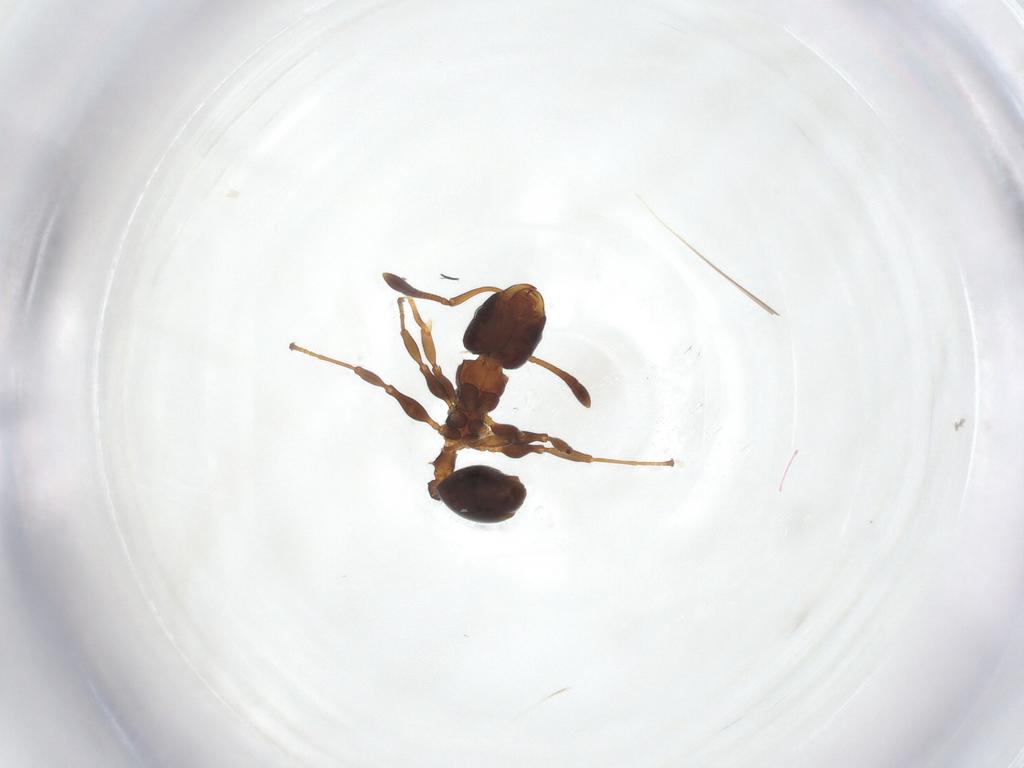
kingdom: Animalia
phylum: Arthropoda
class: Insecta
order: Hymenoptera
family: Formicidae
